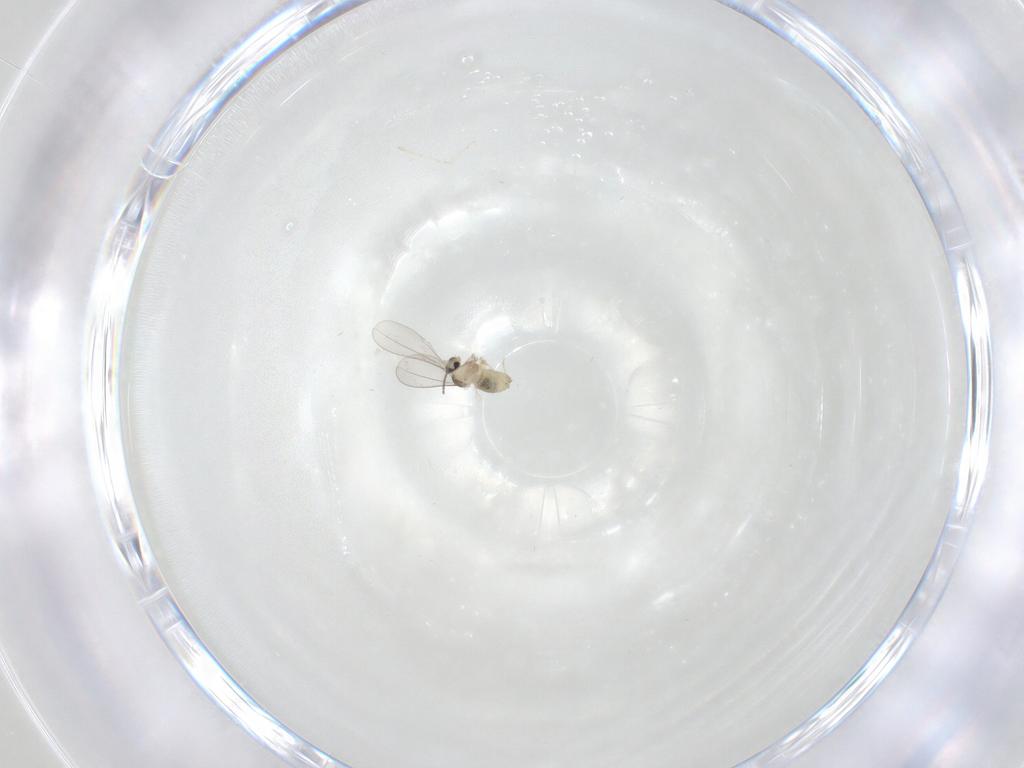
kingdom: Animalia
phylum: Arthropoda
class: Insecta
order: Diptera
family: Cecidomyiidae
